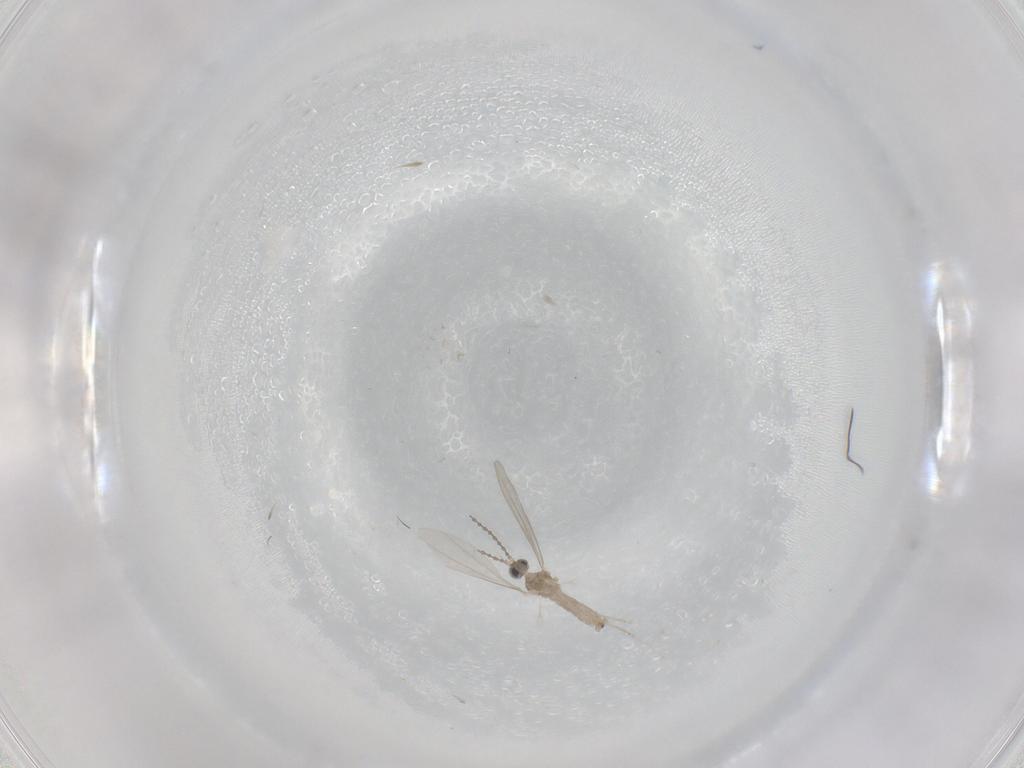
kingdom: Animalia
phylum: Arthropoda
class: Insecta
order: Diptera
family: Cecidomyiidae
